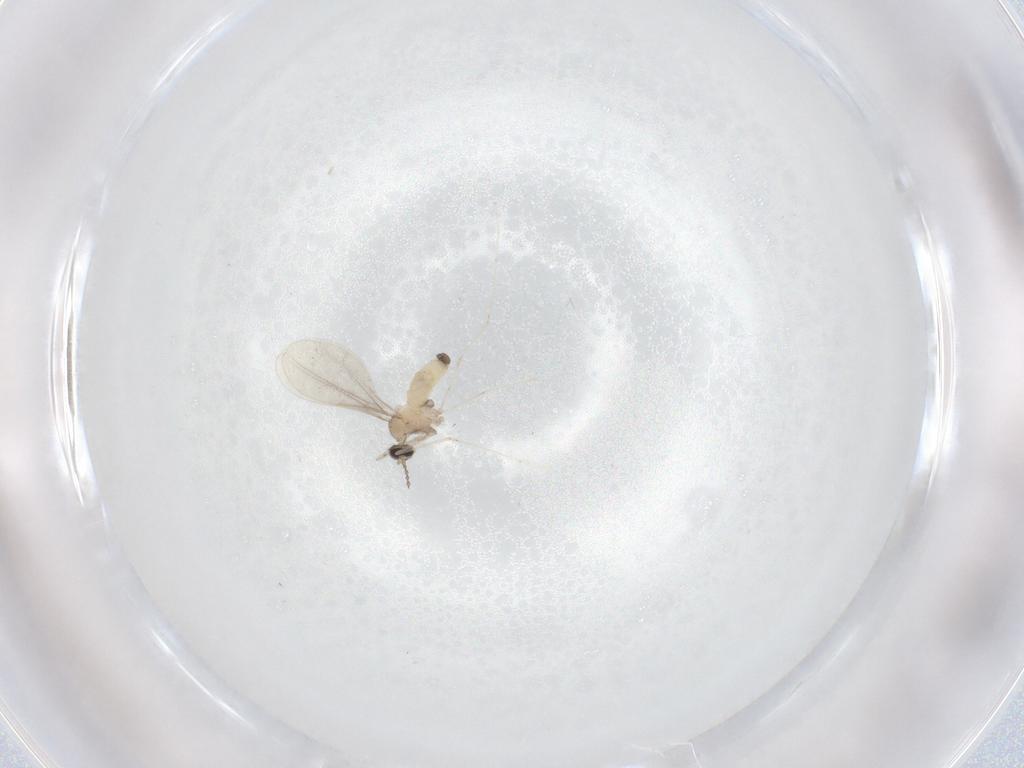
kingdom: Animalia
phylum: Arthropoda
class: Insecta
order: Diptera
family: Cecidomyiidae
